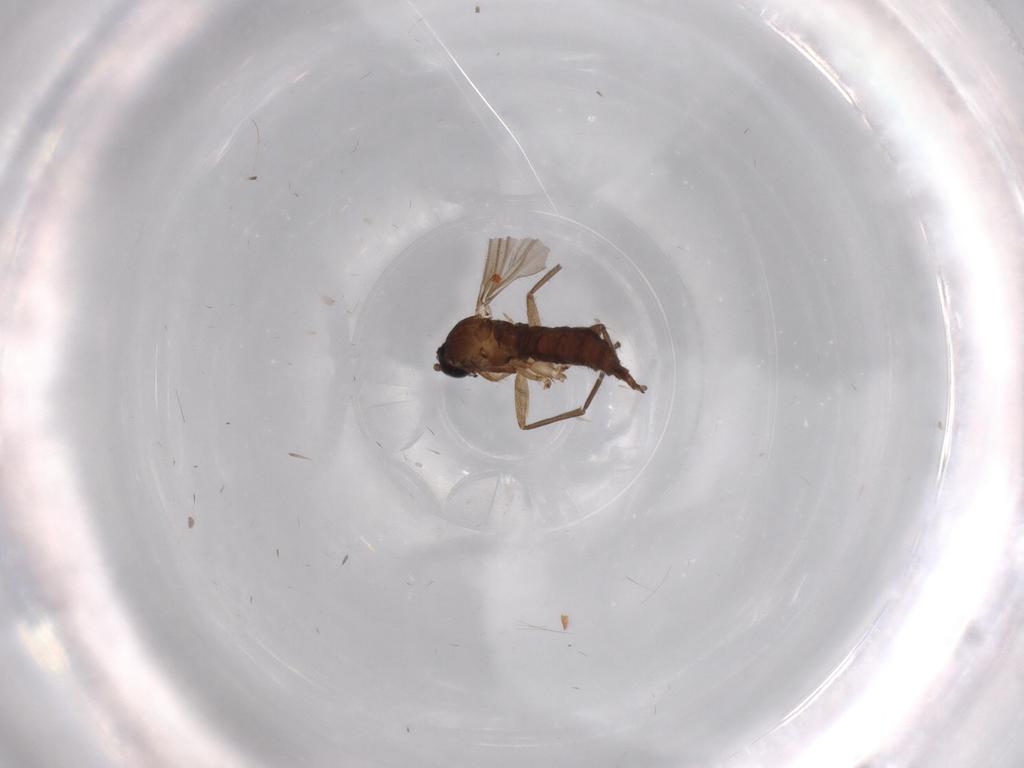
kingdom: Animalia
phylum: Arthropoda
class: Insecta
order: Diptera
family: Sciaridae
